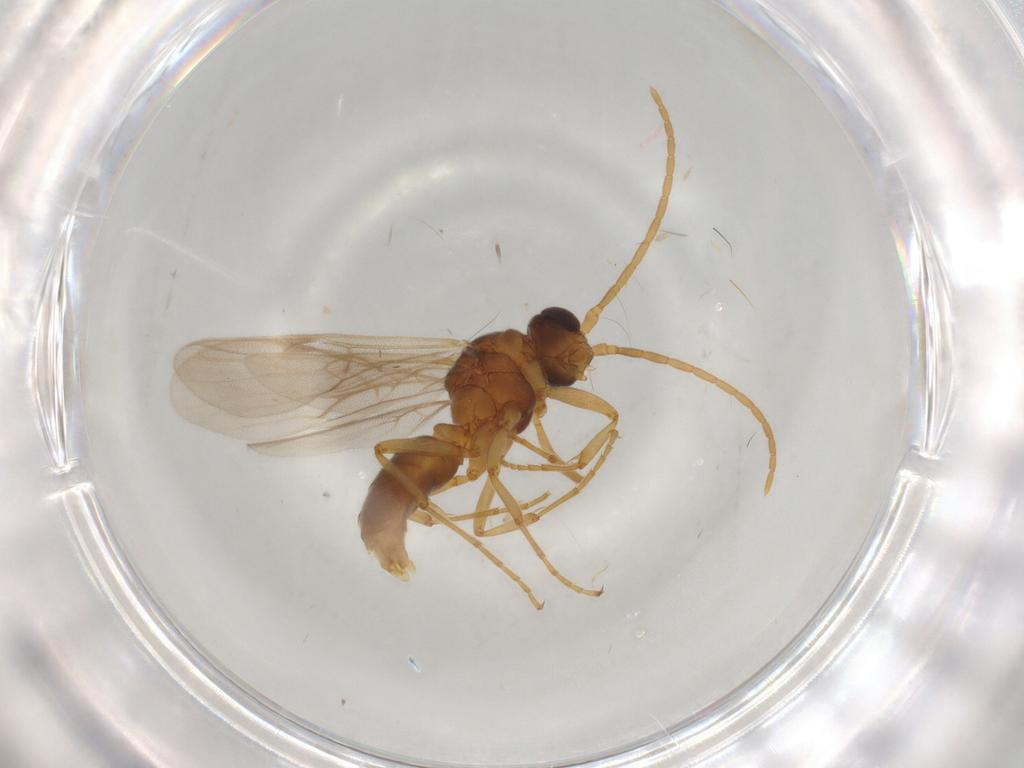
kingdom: Animalia
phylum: Arthropoda
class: Insecta
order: Hymenoptera
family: Formicidae
